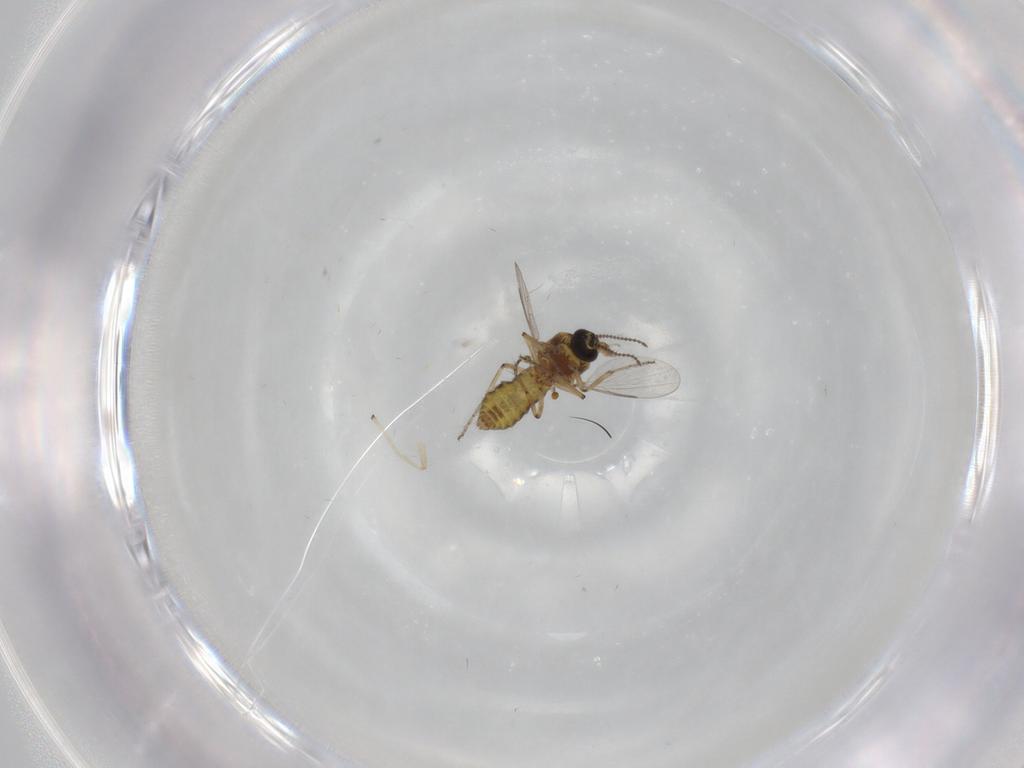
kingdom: Animalia
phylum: Arthropoda
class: Insecta
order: Diptera
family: Ceratopogonidae
